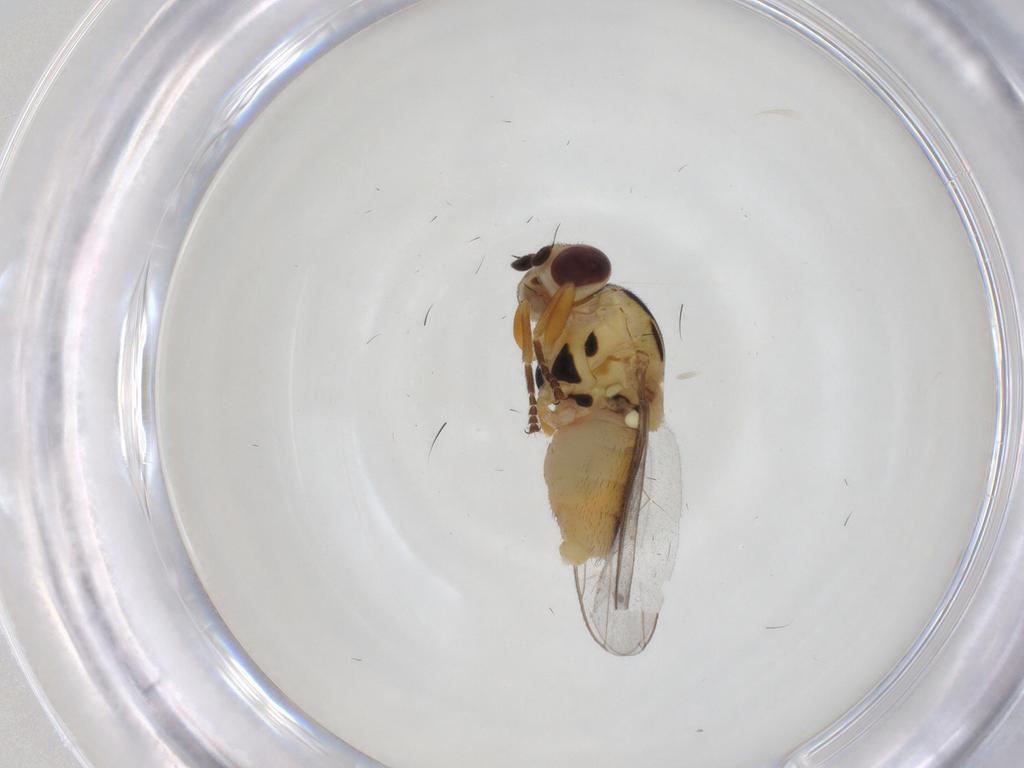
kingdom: Animalia
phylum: Arthropoda
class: Insecta
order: Diptera
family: Chloropidae
